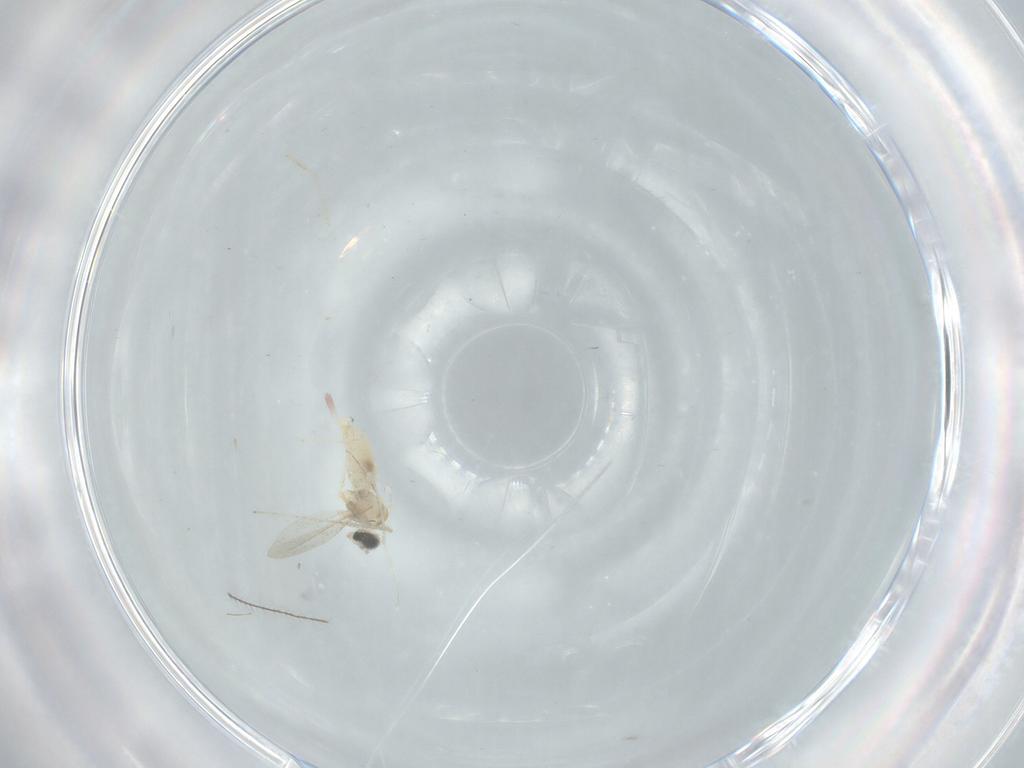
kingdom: Animalia
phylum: Arthropoda
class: Insecta
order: Diptera
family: Cecidomyiidae
